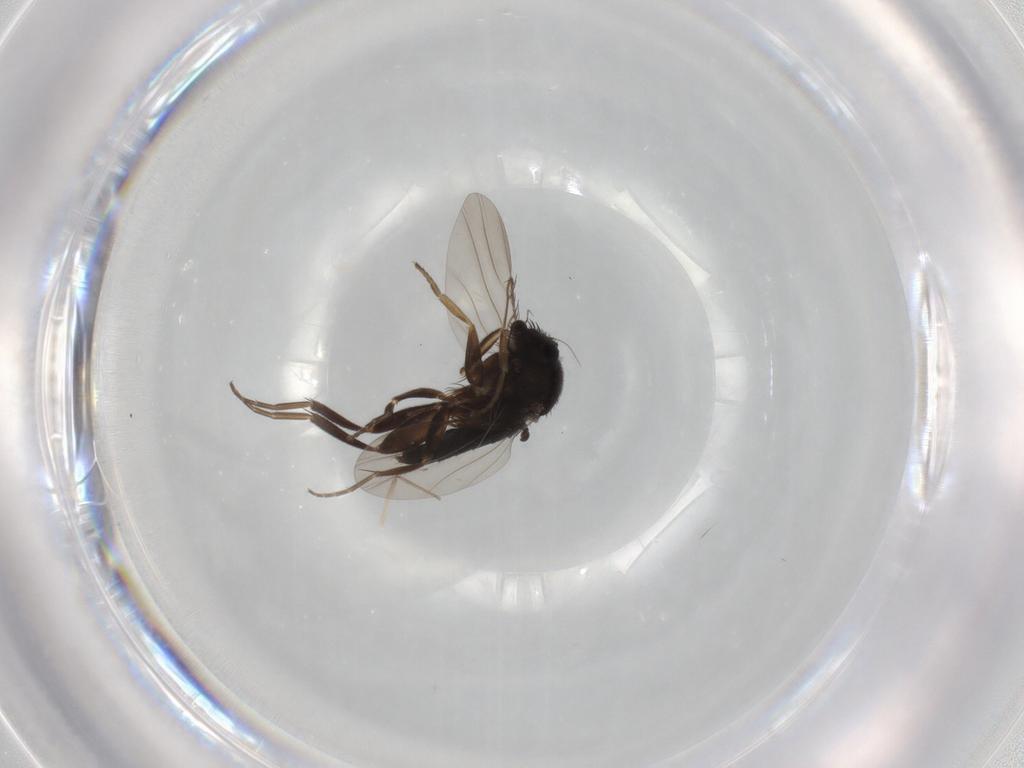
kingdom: Animalia
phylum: Arthropoda
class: Insecta
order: Diptera
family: Phoridae
